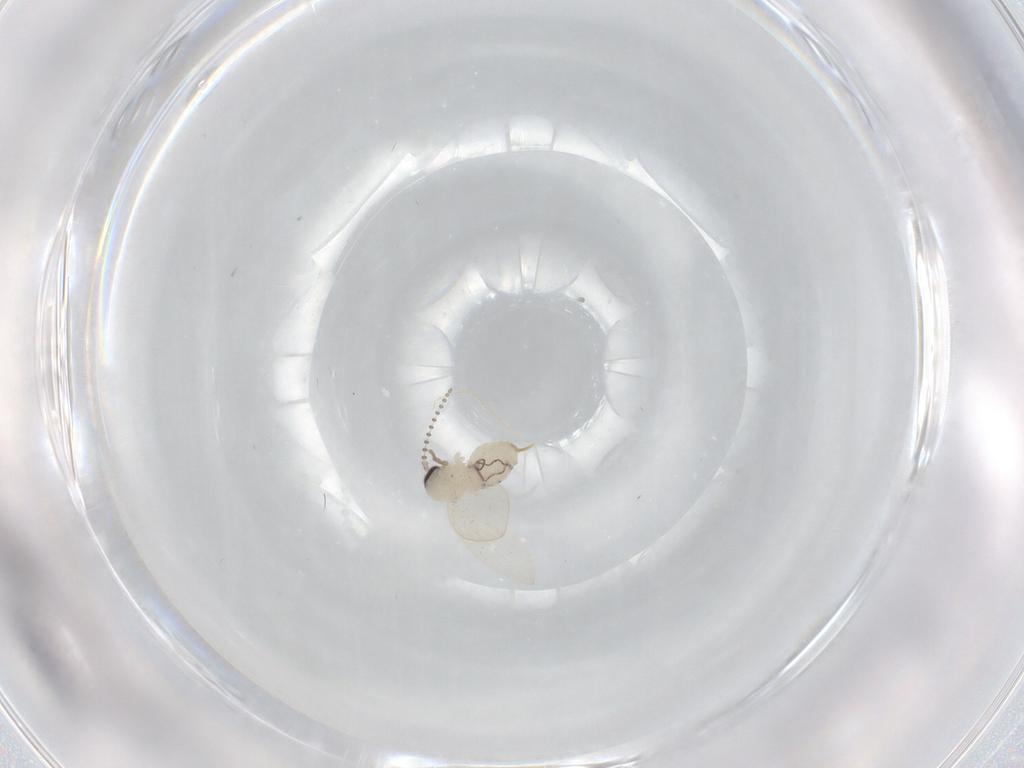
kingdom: Animalia
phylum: Arthropoda
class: Insecta
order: Diptera
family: Psychodidae
